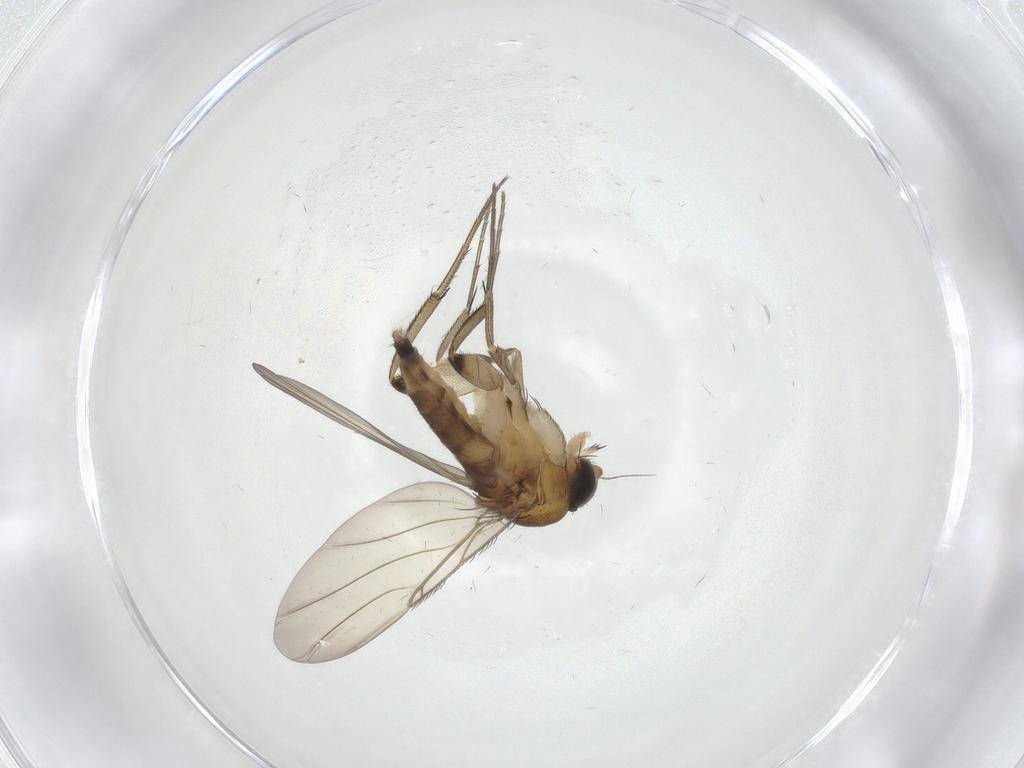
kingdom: Animalia
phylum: Arthropoda
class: Insecta
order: Diptera
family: Phoridae
